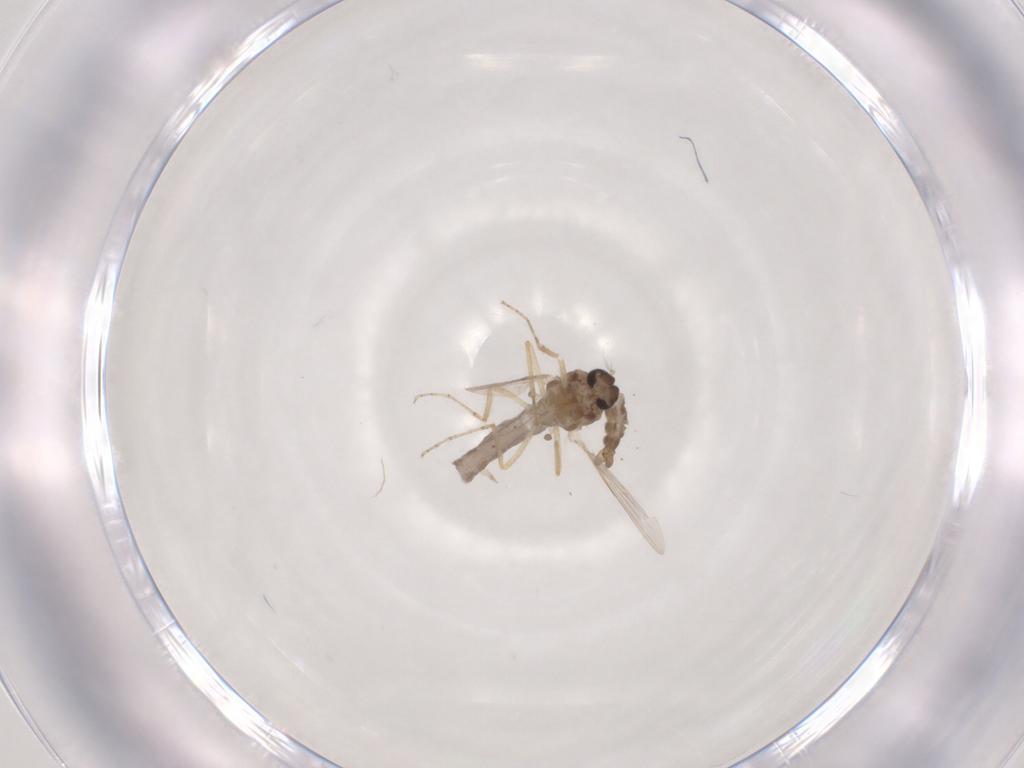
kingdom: Animalia
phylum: Arthropoda
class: Insecta
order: Diptera
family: Ceratopogonidae
